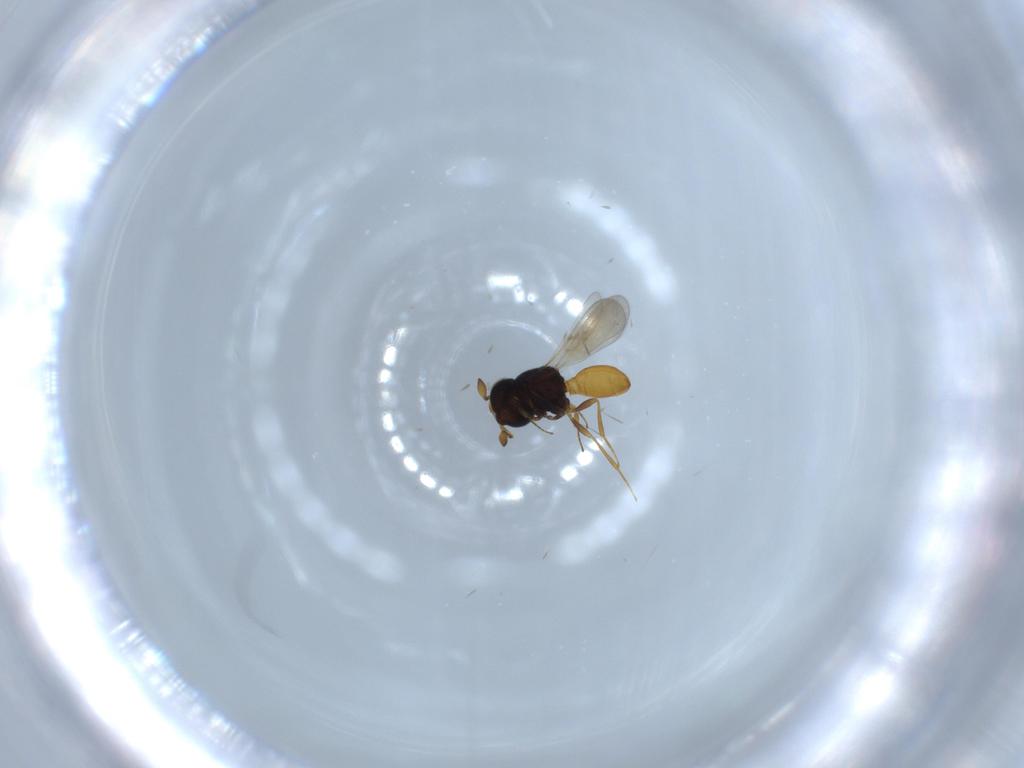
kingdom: Animalia
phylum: Arthropoda
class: Insecta
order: Hymenoptera
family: Scelionidae
